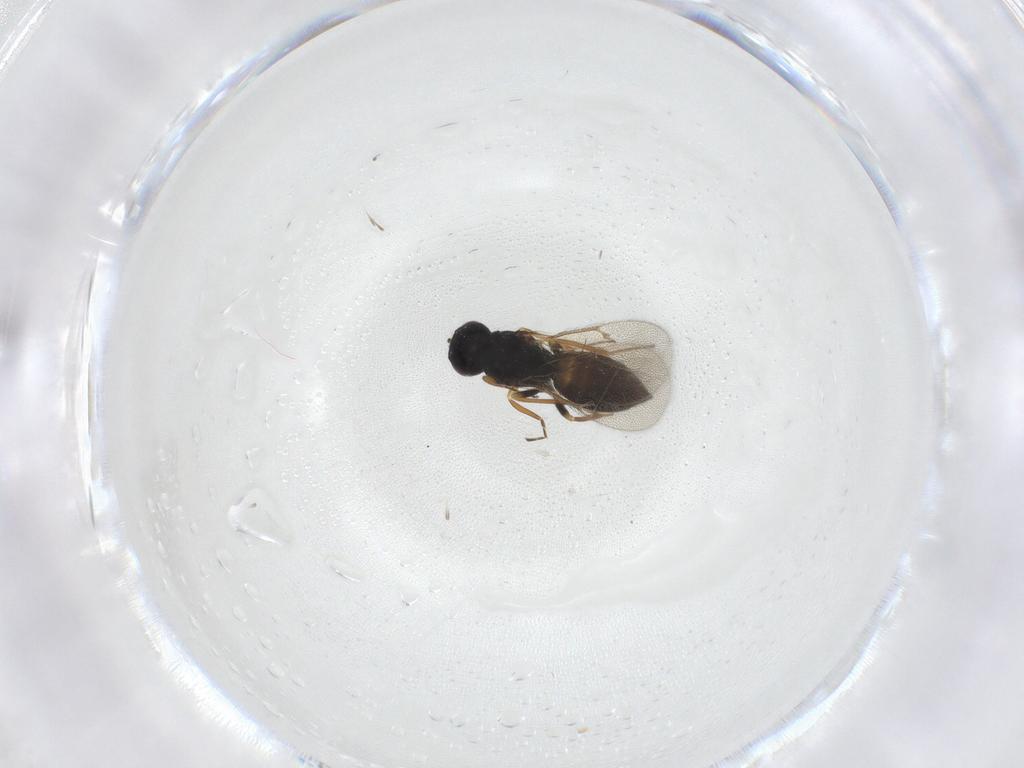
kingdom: Animalia
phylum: Arthropoda
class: Insecta
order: Hymenoptera
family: Eulophidae
